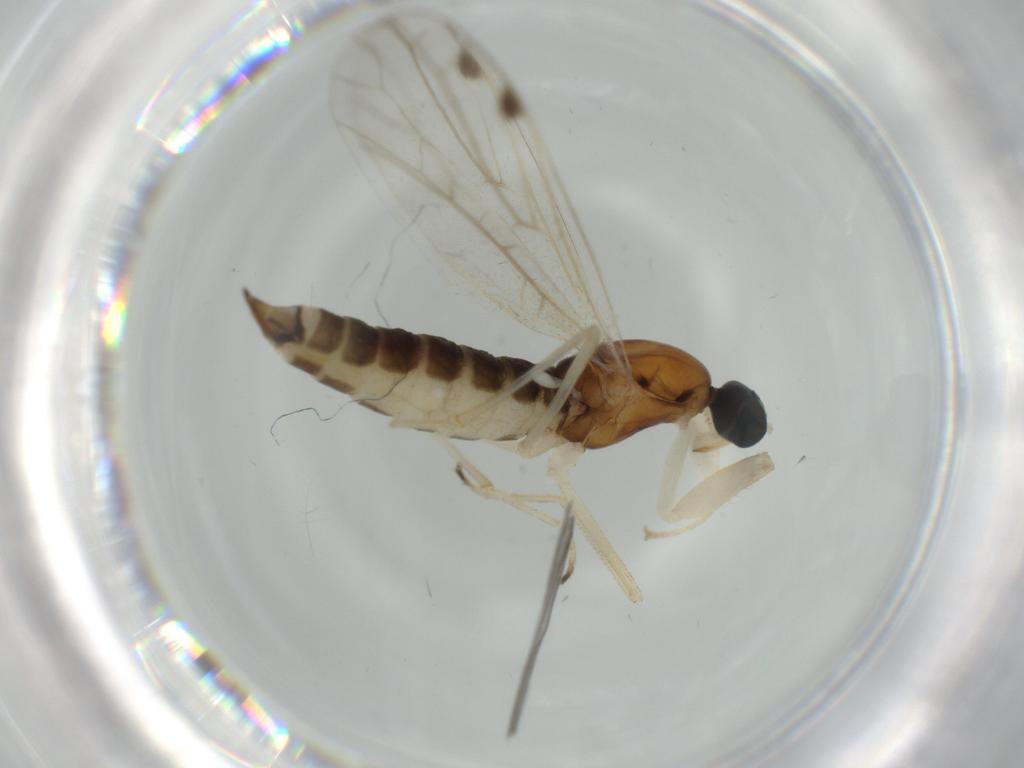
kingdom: Animalia
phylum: Arthropoda
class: Insecta
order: Diptera
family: Empididae
